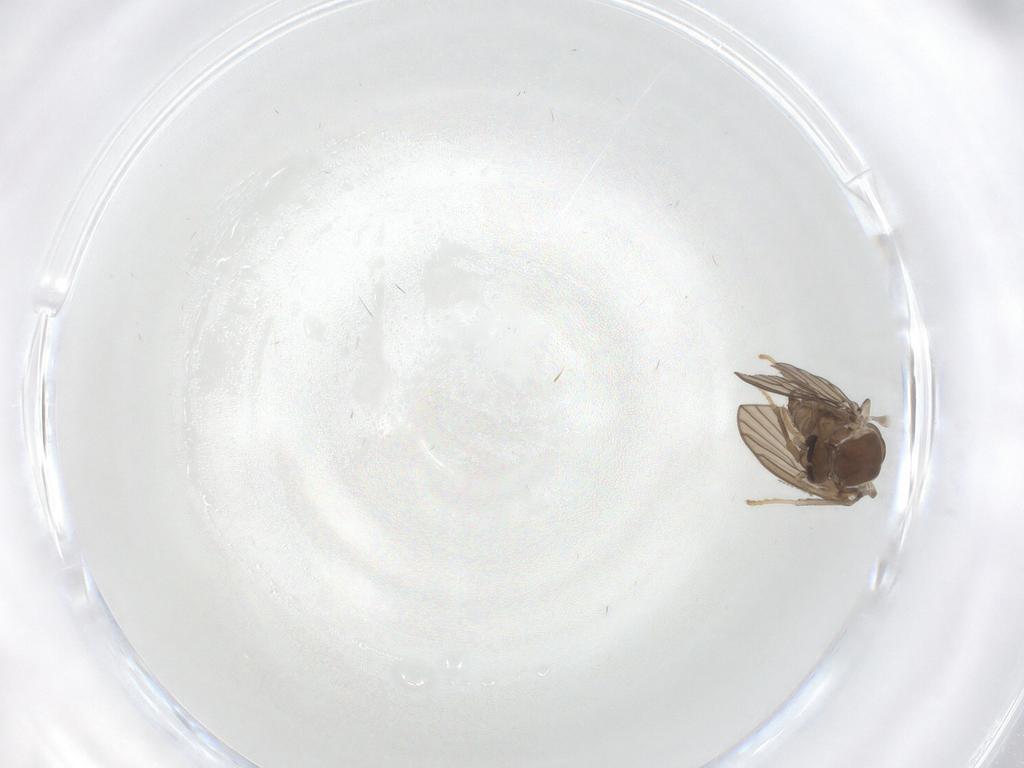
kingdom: Animalia
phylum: Arthropoda
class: Insecta
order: Diptera
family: Psychodidae
